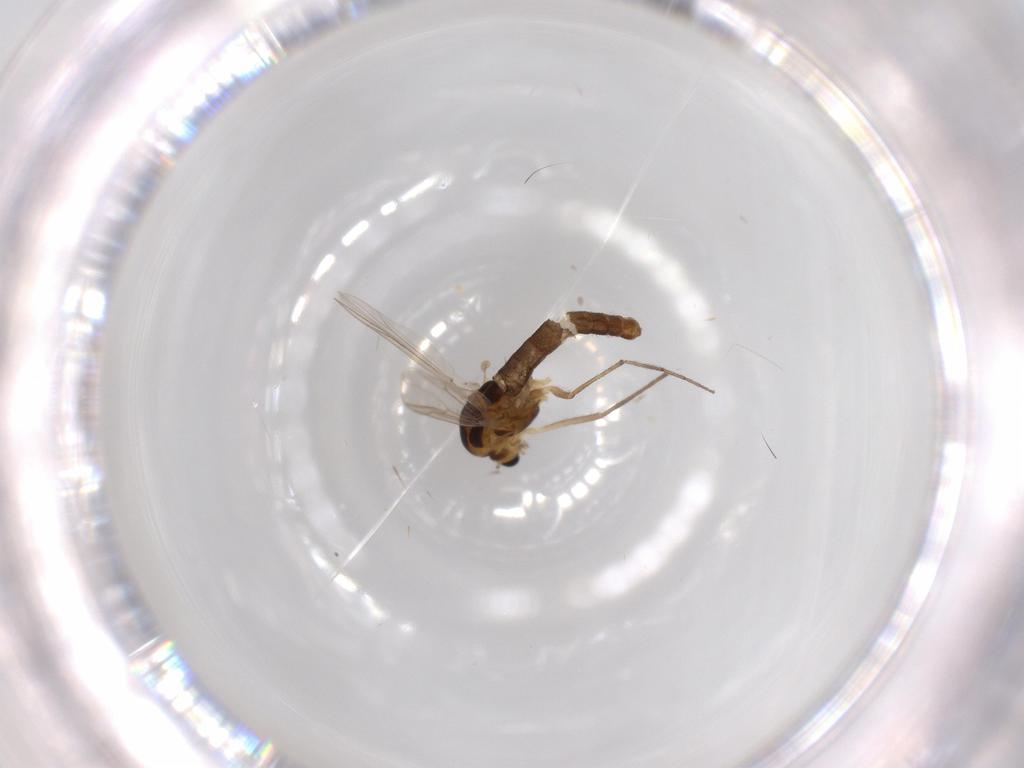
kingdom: Animalia
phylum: Arthropoda
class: Insecta
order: Diptera
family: Chironomidae
